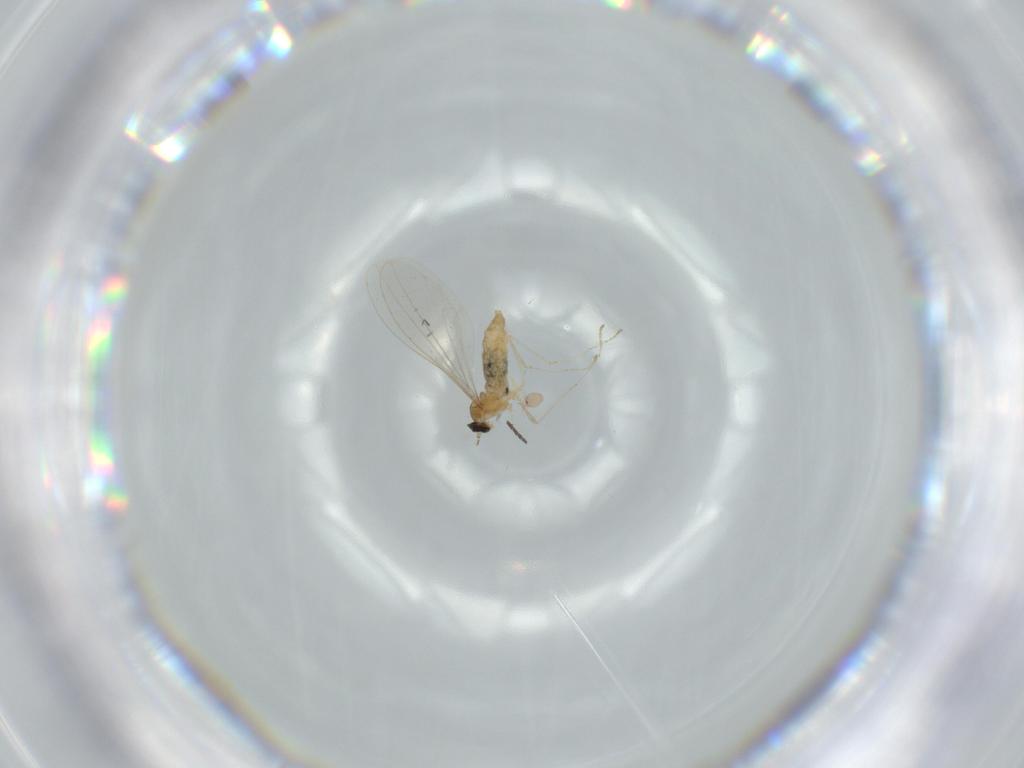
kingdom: Animalia
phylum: Arthropoda
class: Insecta
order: Diptera
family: Cecidomyiidae
